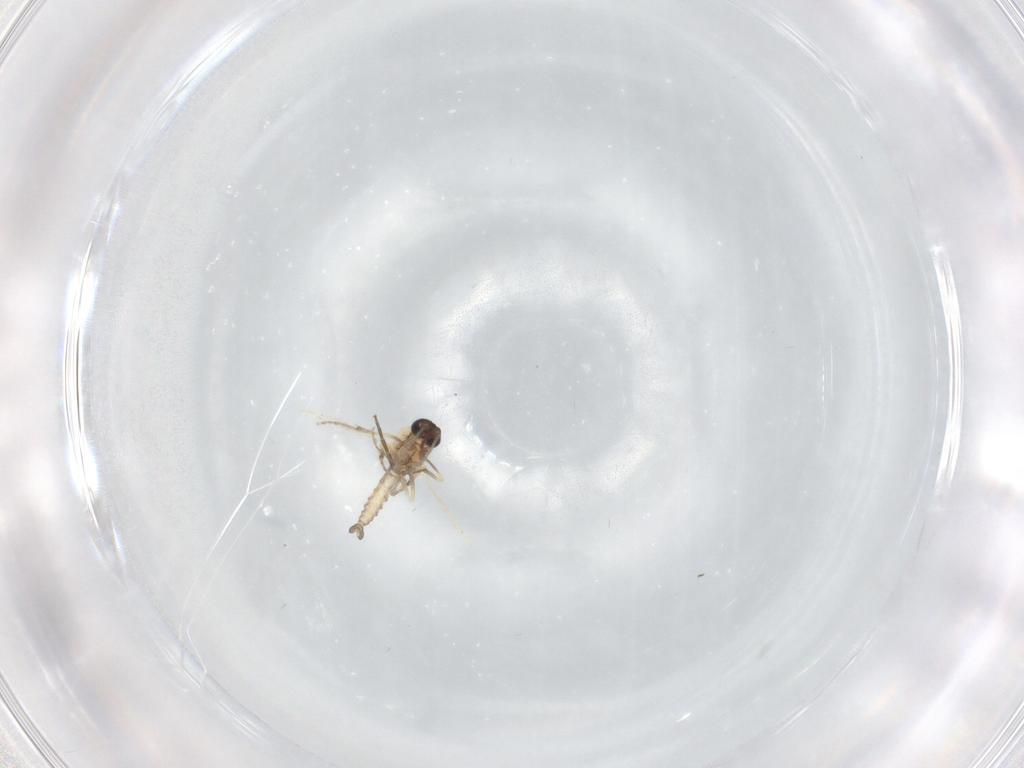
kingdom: Animalia
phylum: Arthropoda
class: Insecta
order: Diptera
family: Ceratopogonidae
